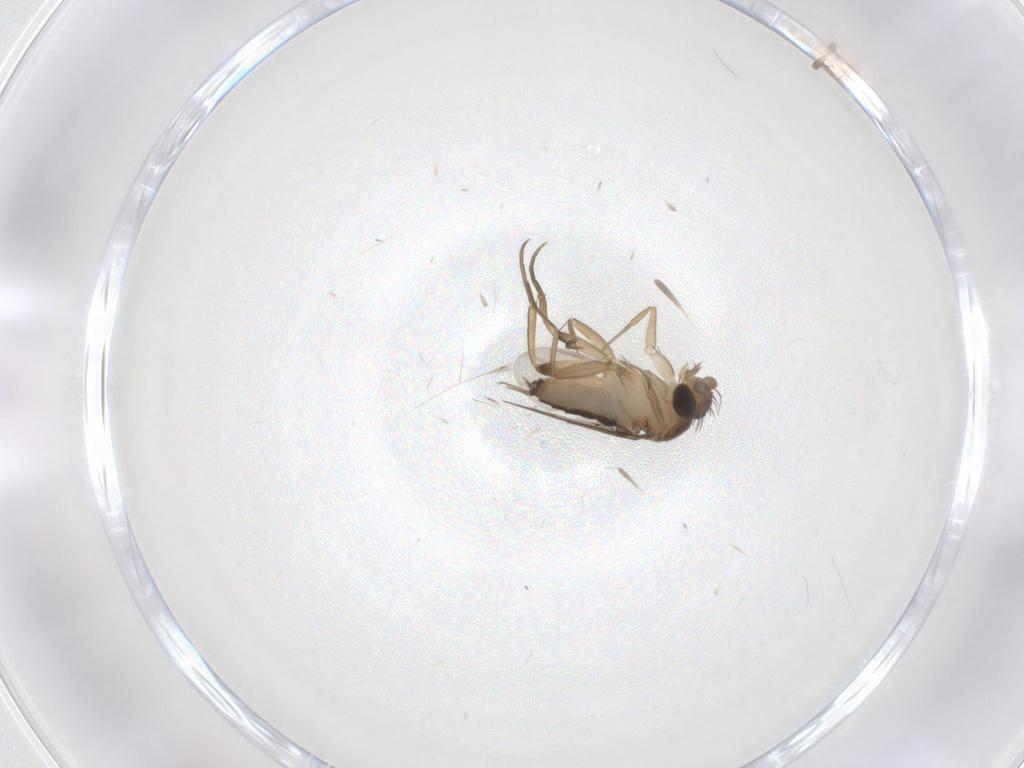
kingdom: Animalia
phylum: Arthropoda
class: Insecta
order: Diptera
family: Phoridae
